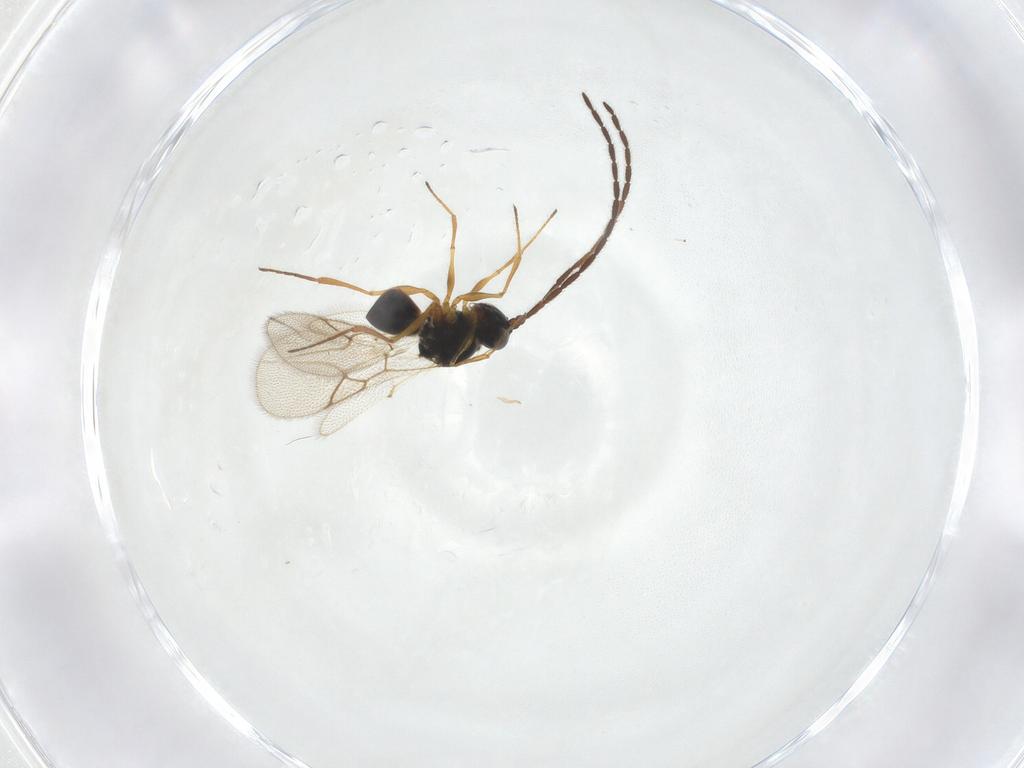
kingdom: Animalia
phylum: Arthropoda
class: Insecta
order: Hymenoptera
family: Figitidae
